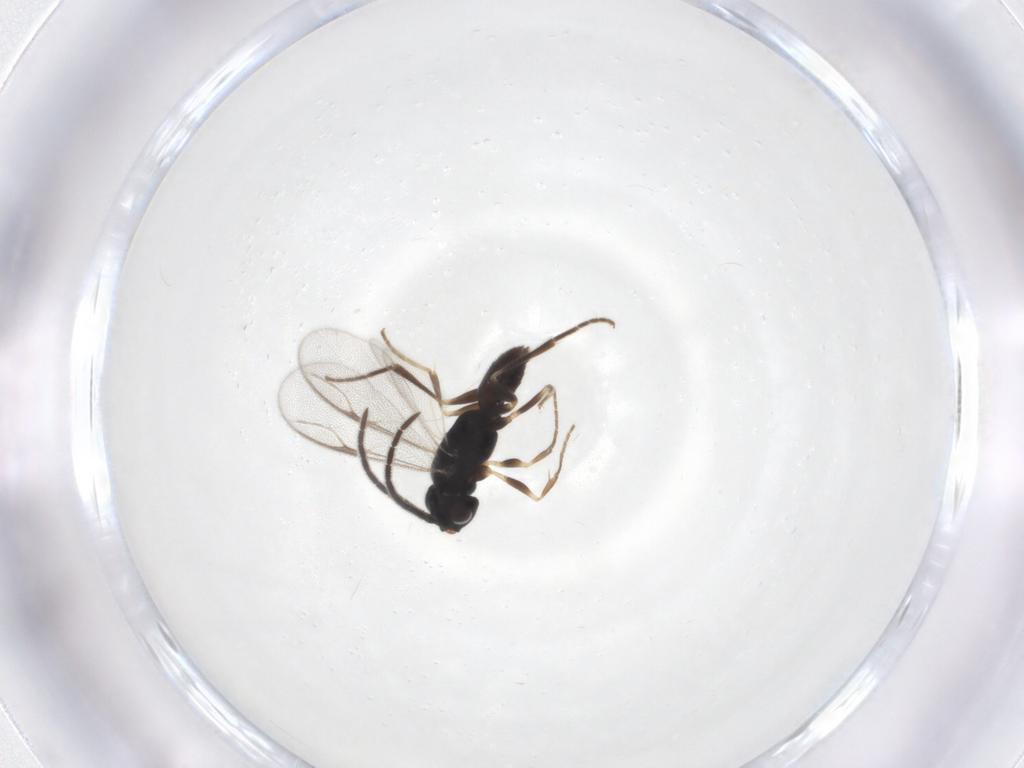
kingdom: Animalia
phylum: Arthropoda
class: Insecta
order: Hymenoptera
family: Dryinidae
